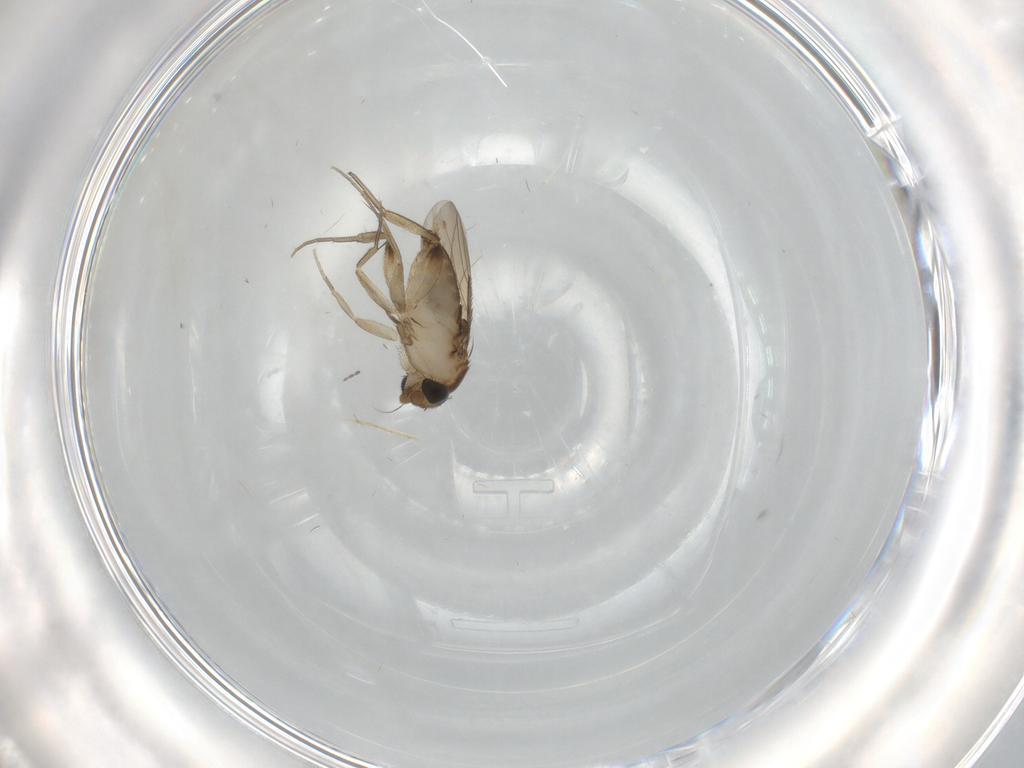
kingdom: Animalia
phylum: Arthropoda
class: Insecta
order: Diptera
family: Phoridae
